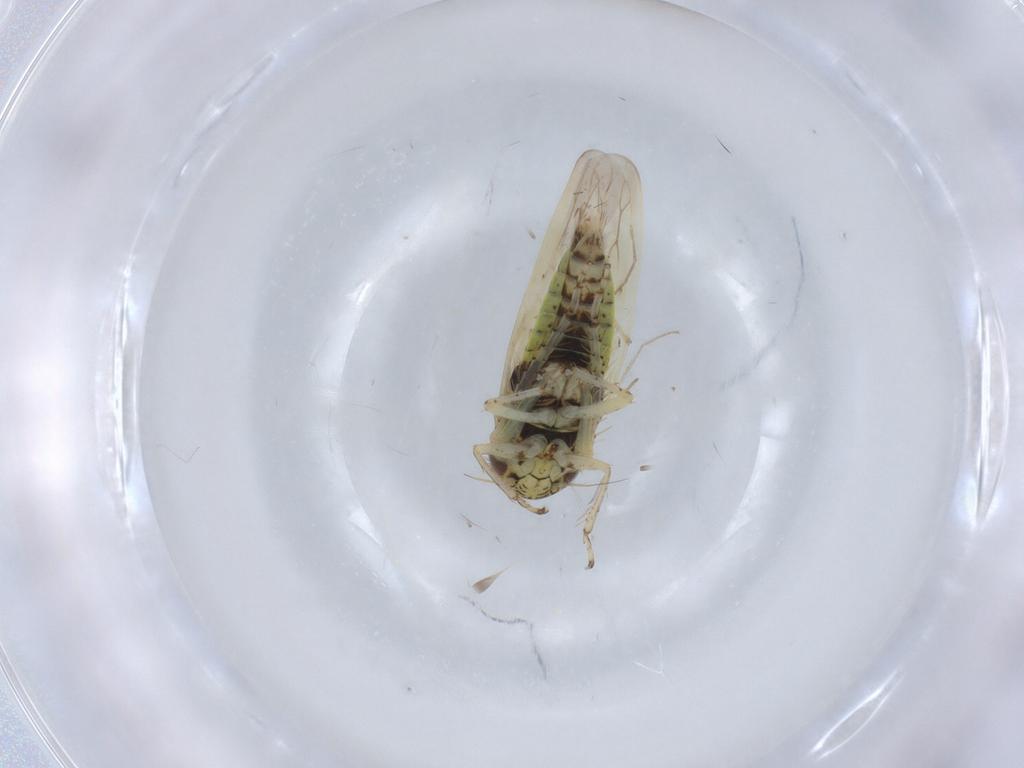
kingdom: Animalia
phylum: Arthropoda
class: Insecta
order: Hemiptera
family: Cicadellidae
